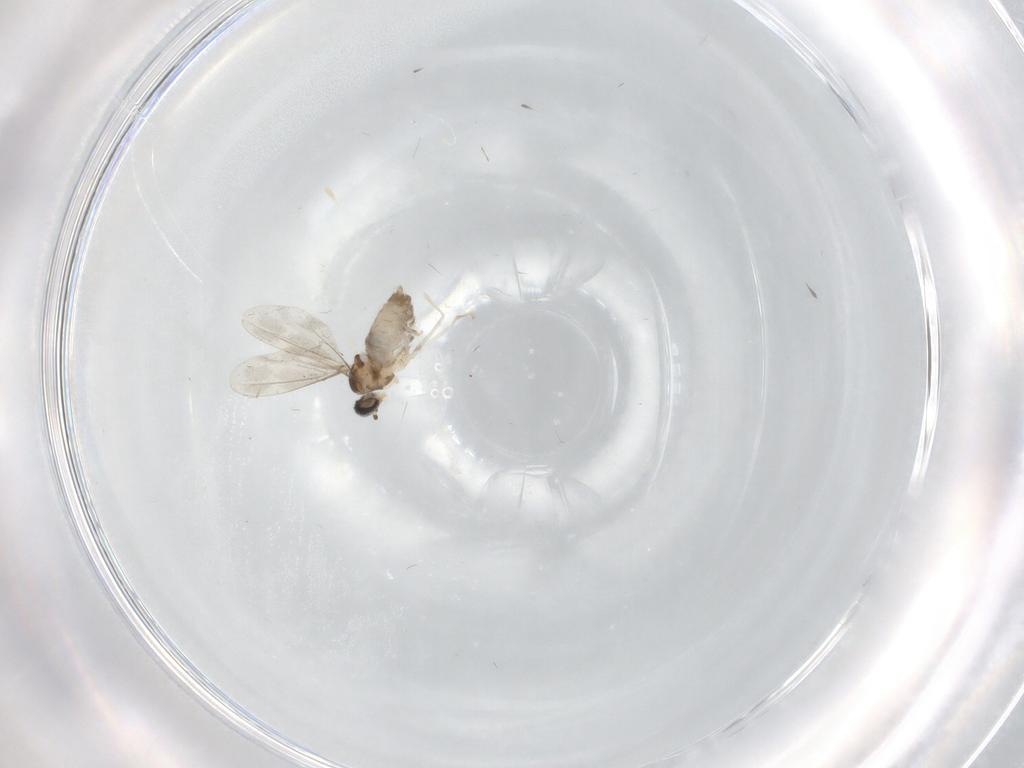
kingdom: Animalia
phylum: Arthropoda
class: Insecta
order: Diptera
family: Cecidomyiidae
